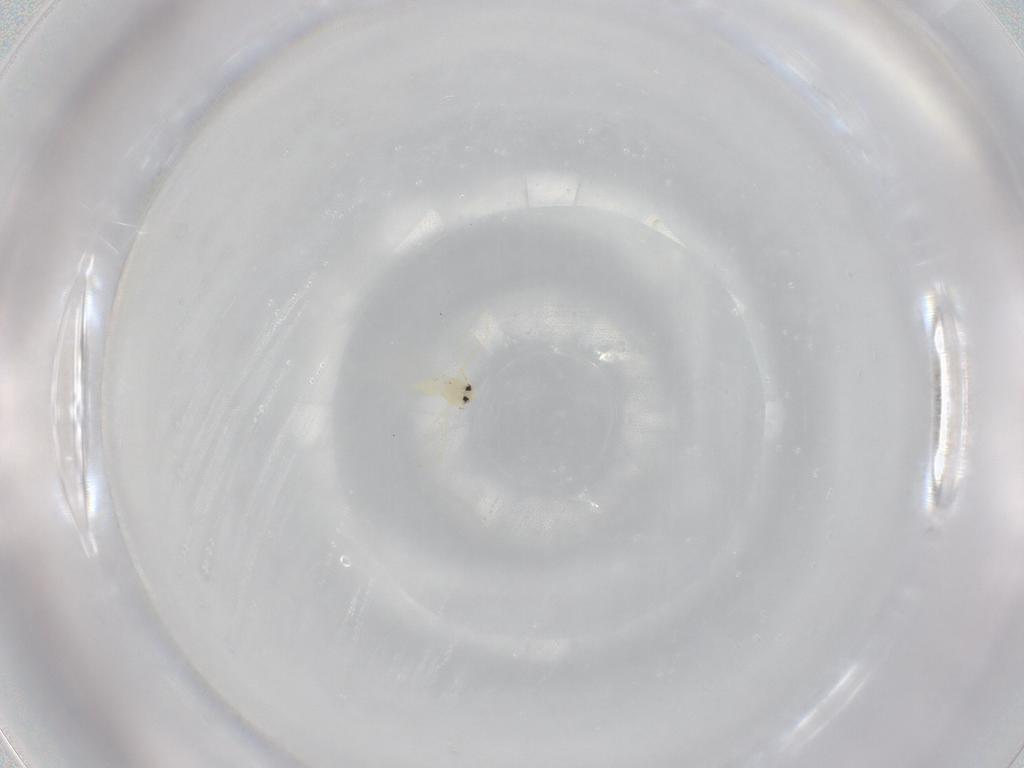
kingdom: Animalia
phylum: Arthropoda
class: Insecta
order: Hemiptera
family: Aleyrodidae
